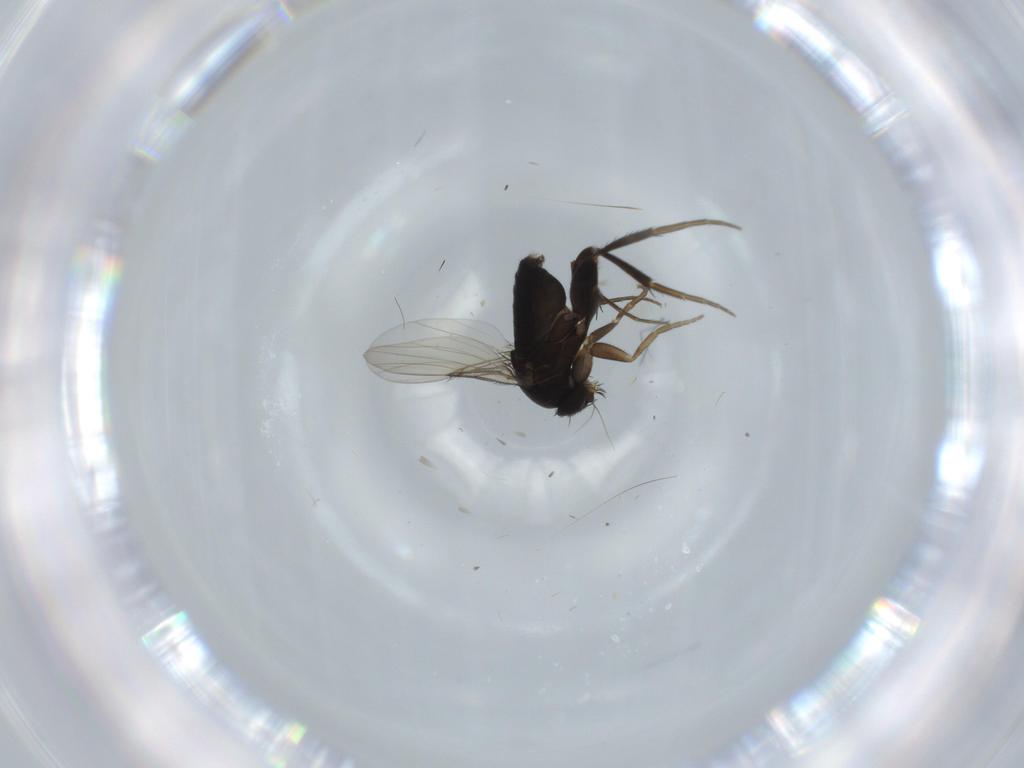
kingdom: Animalia
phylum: Arthropoda
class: Insecta
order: Diptera
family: Phoridae
